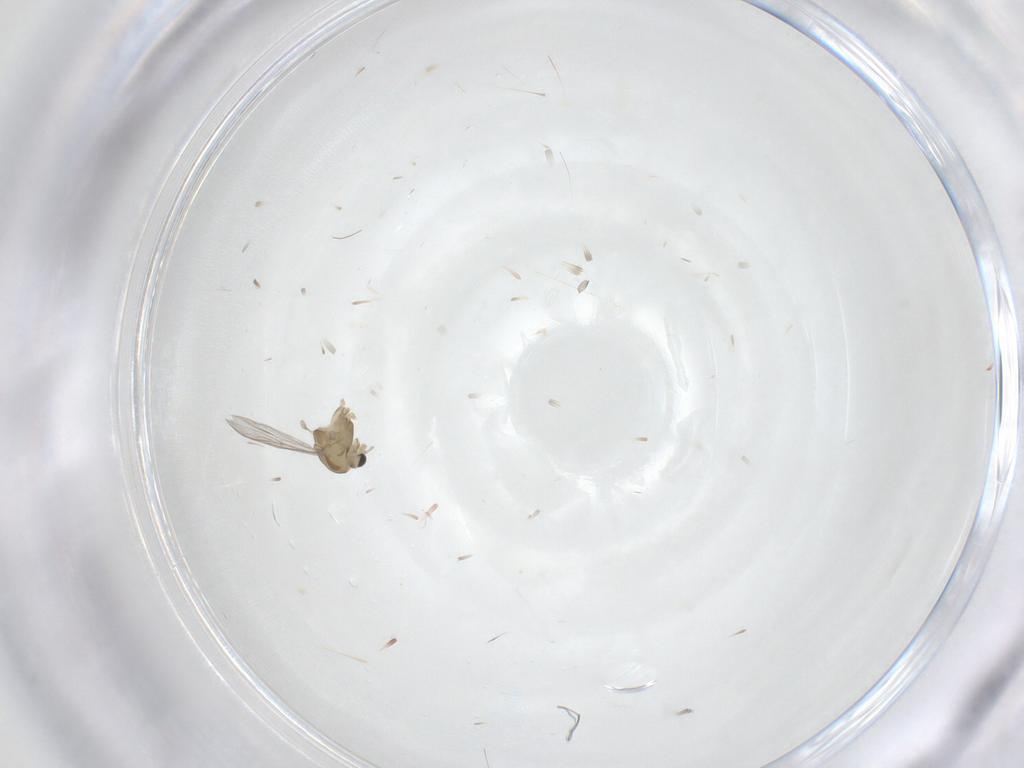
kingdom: Animalia
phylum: Arthropoda
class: Insecta
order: Diptera
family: Chironomidae
